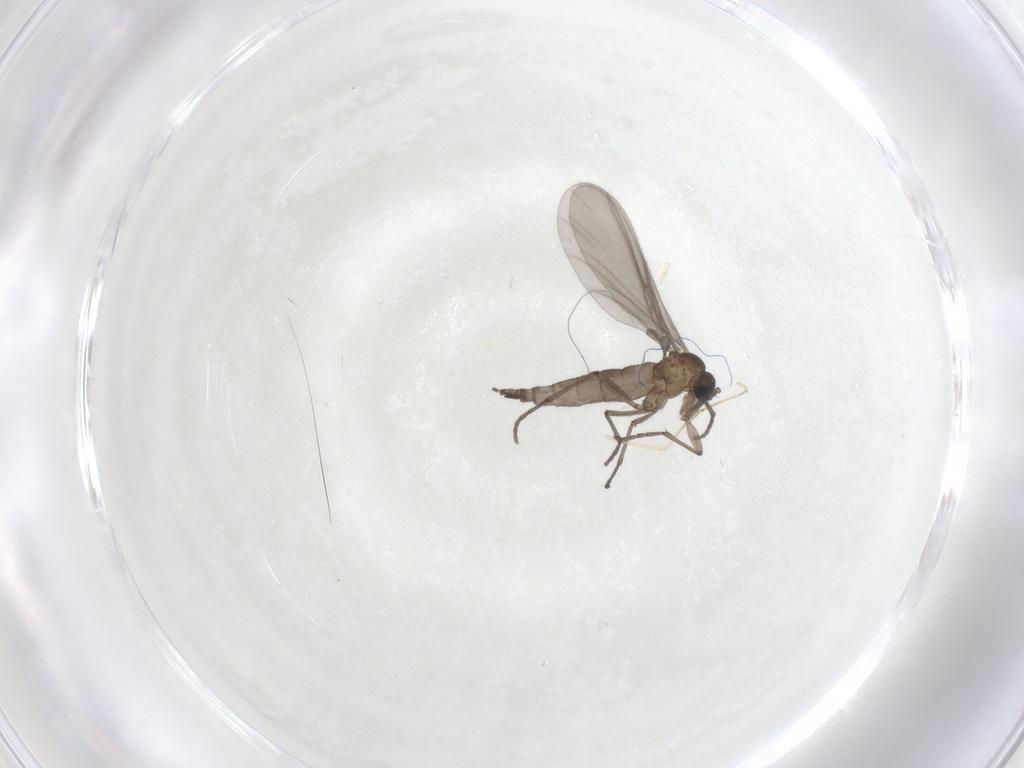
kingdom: Animalia
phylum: Arthropoda
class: Insecta
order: Diptera
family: Sciaridae
